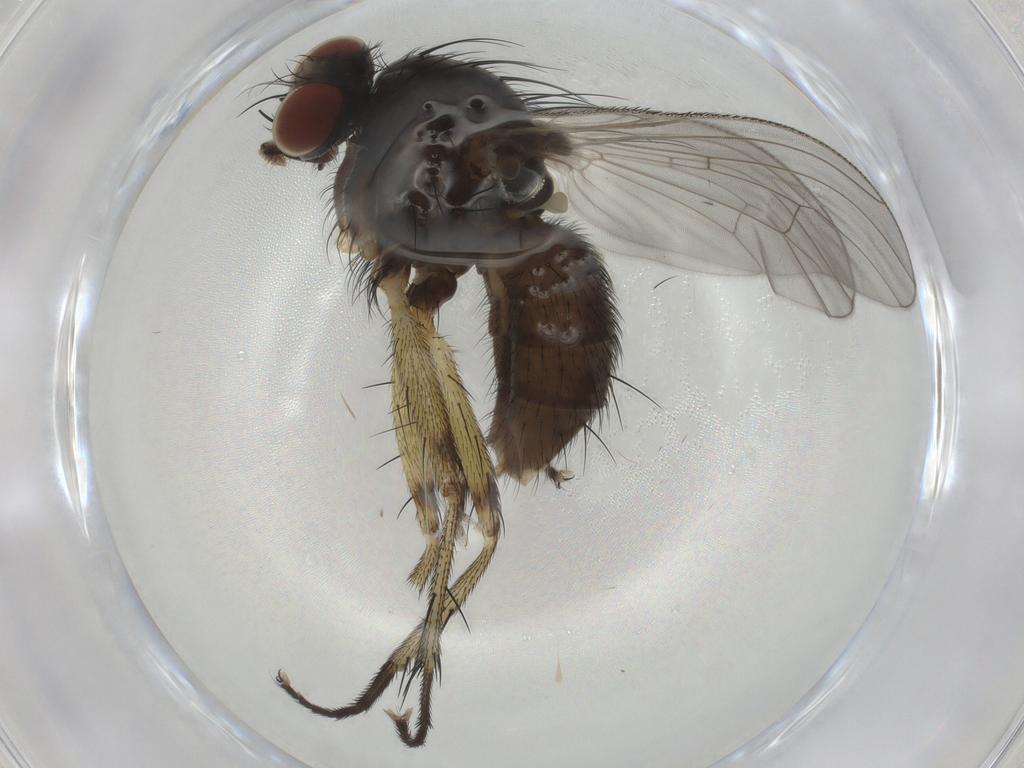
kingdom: Animalia
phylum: Arthropoda
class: Insecta
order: Diptera
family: Muscidae
